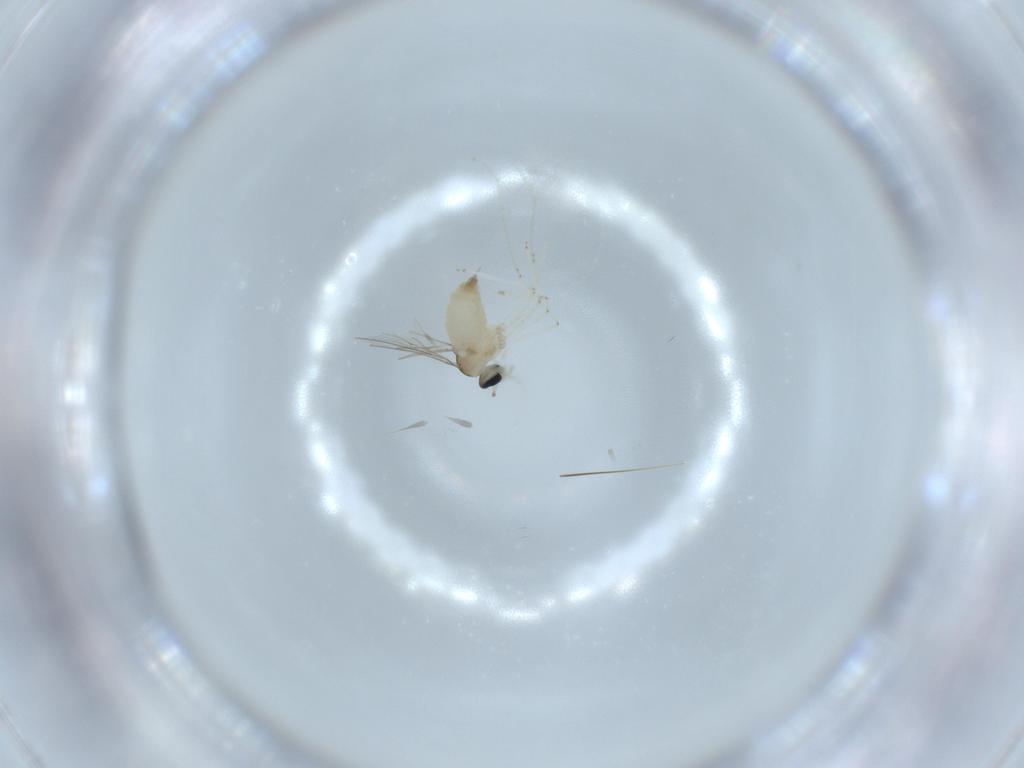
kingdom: Animalia
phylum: Arthropoda
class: Insecta
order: Diptera
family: Cecidomyiidae
